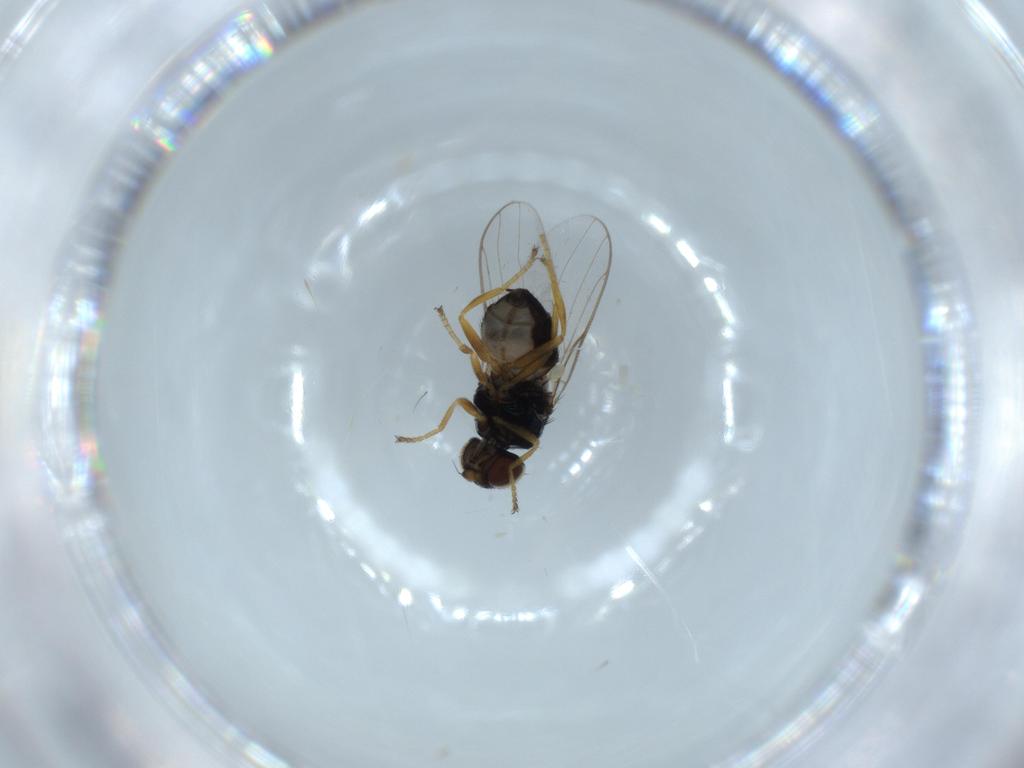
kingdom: Animalia
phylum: Arthropoda
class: Insecta
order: Diptera
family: Chloropidae
